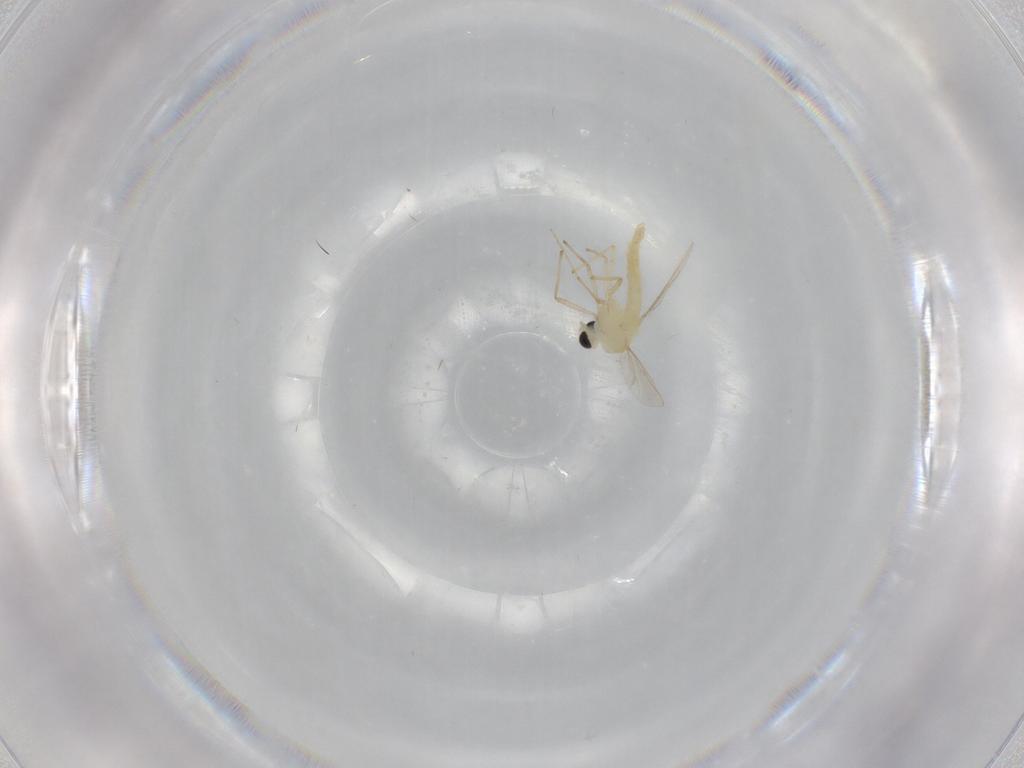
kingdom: Animalia
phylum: Arthropoda
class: Insecta
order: Diptera
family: Chironomidae
